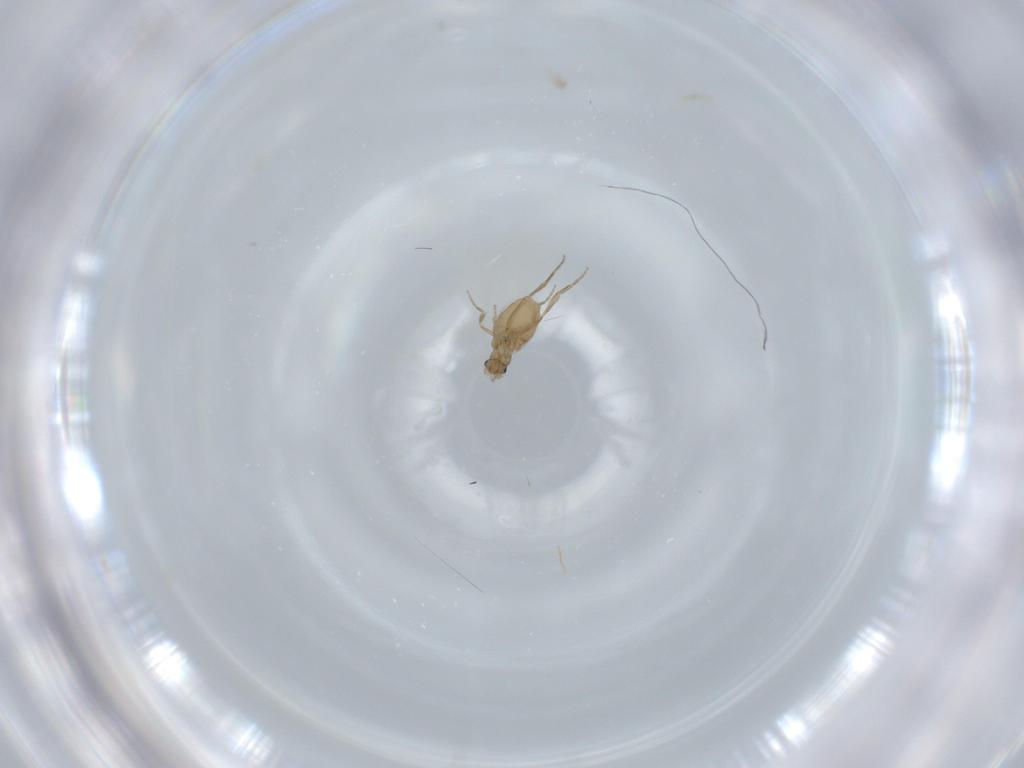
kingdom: Animalia
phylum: Arthropoda
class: Insecta
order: Diptera
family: Phoridae
